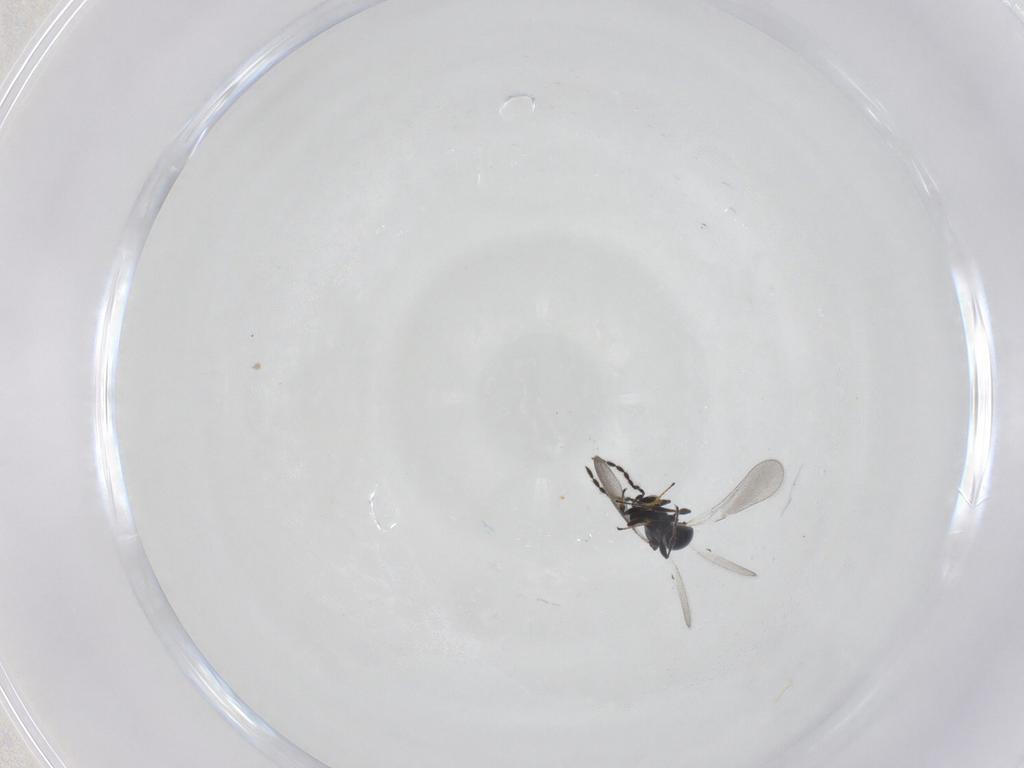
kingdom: Animalia
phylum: Arthropoda
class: Insecta
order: Hymenoptera
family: Platygastridae
